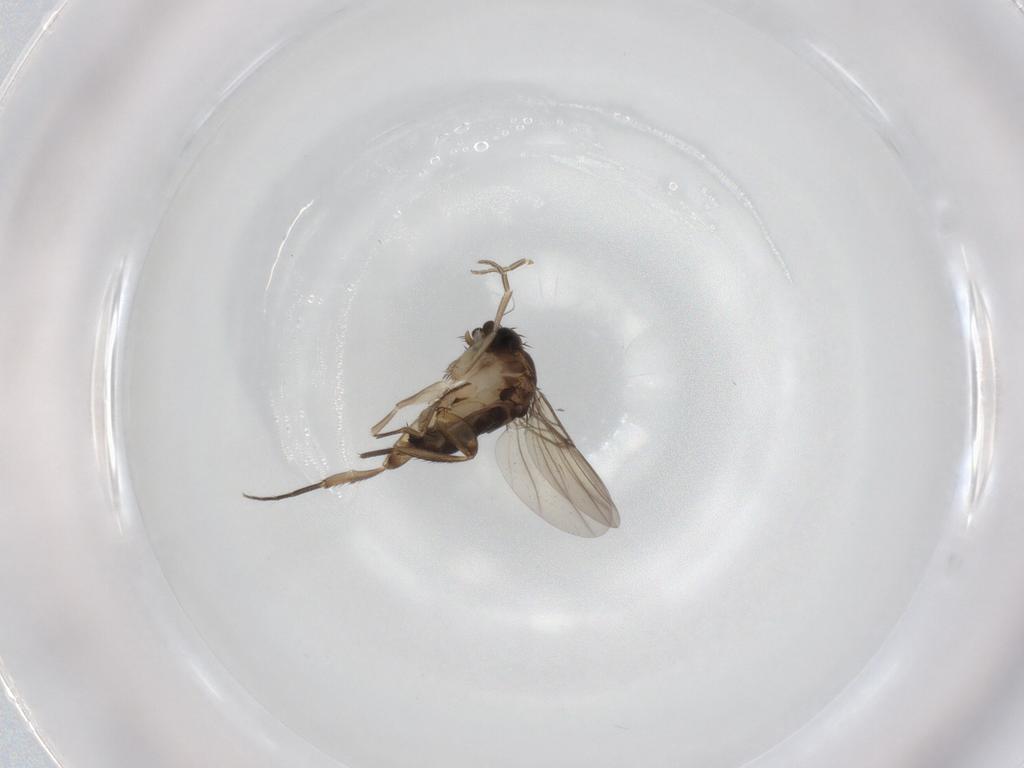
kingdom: Animalia
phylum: Arthropoda
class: Insecta
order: Diptera
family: Phoridae
